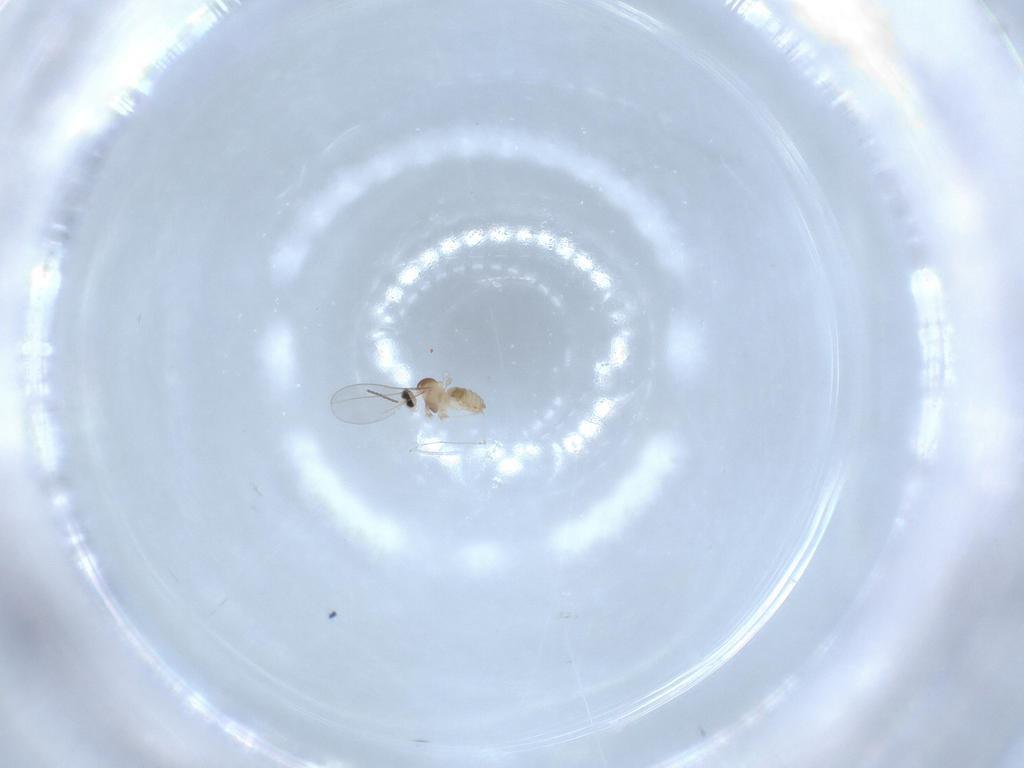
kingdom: Animalia
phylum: Arthropoda
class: Insecta
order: Diptera
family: Cecidomyiidae
